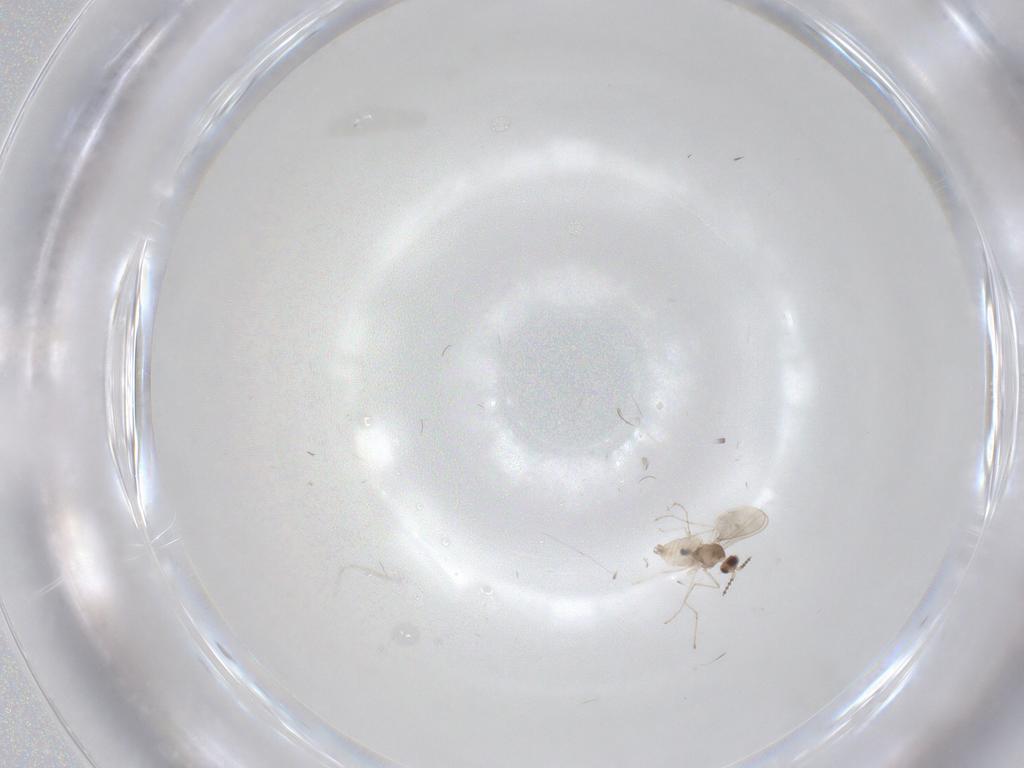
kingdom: Animalia
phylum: Arthropoda
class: Insecta
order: Diptera
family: Cecidomyiidae
